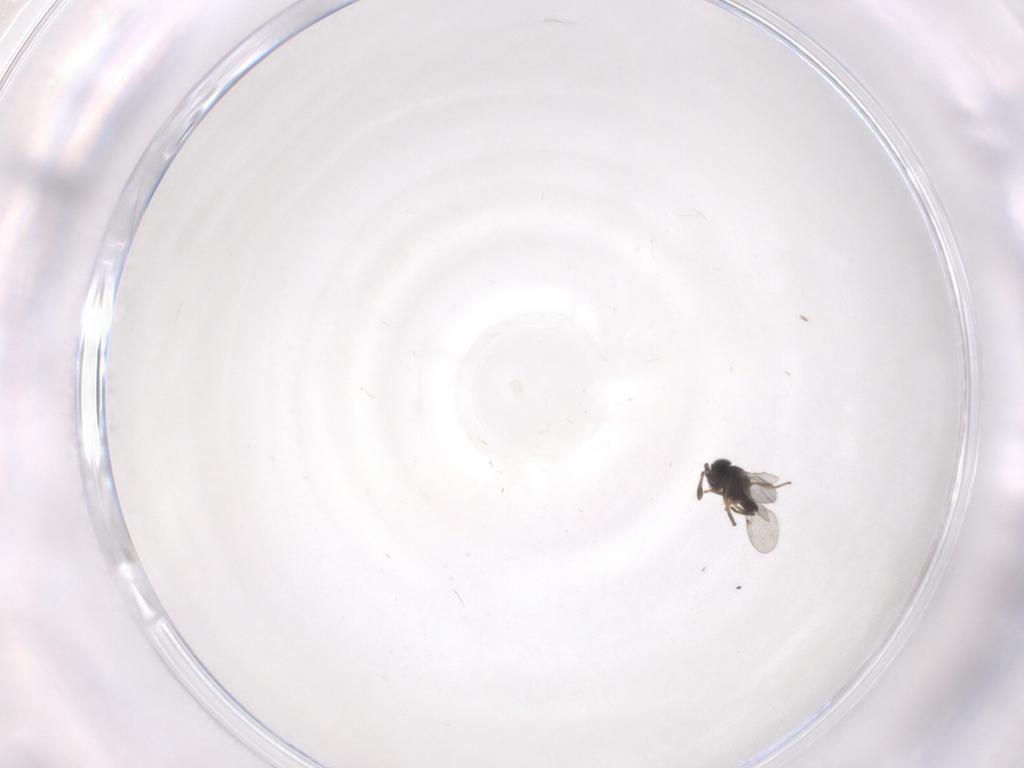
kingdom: Animalia
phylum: Arthropoda
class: Insecta
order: Hymenoptera
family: Encyrtidae
